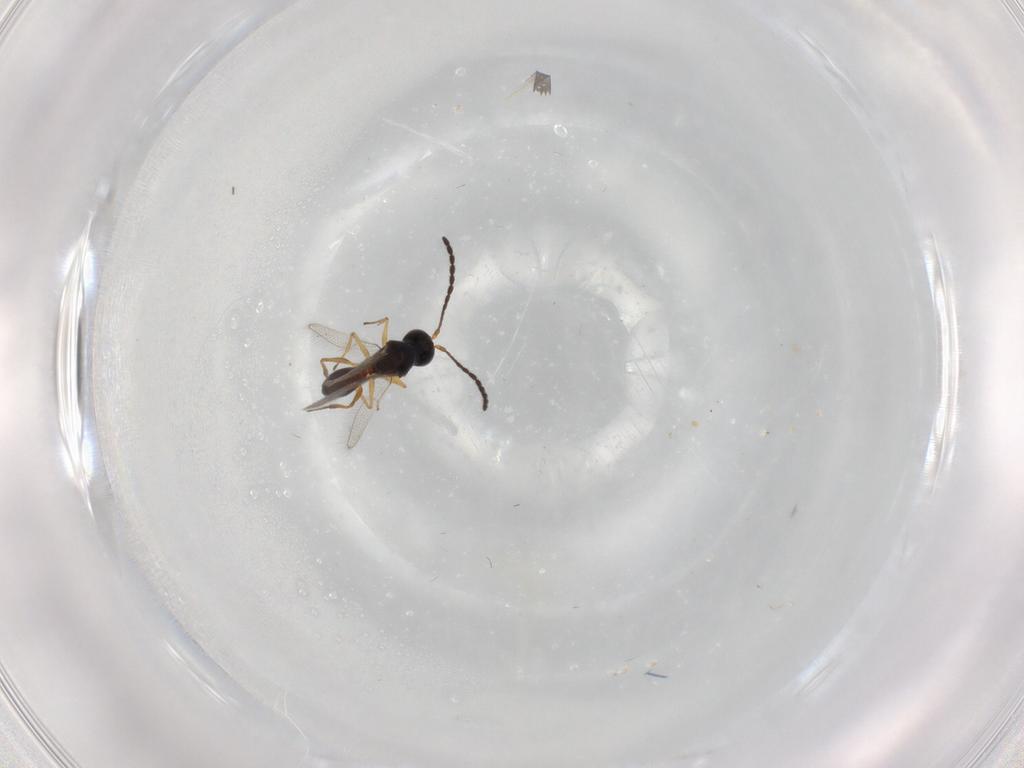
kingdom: Animalia
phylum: Arthropoda
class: Insecta
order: Hymenoptera
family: Figitidae
